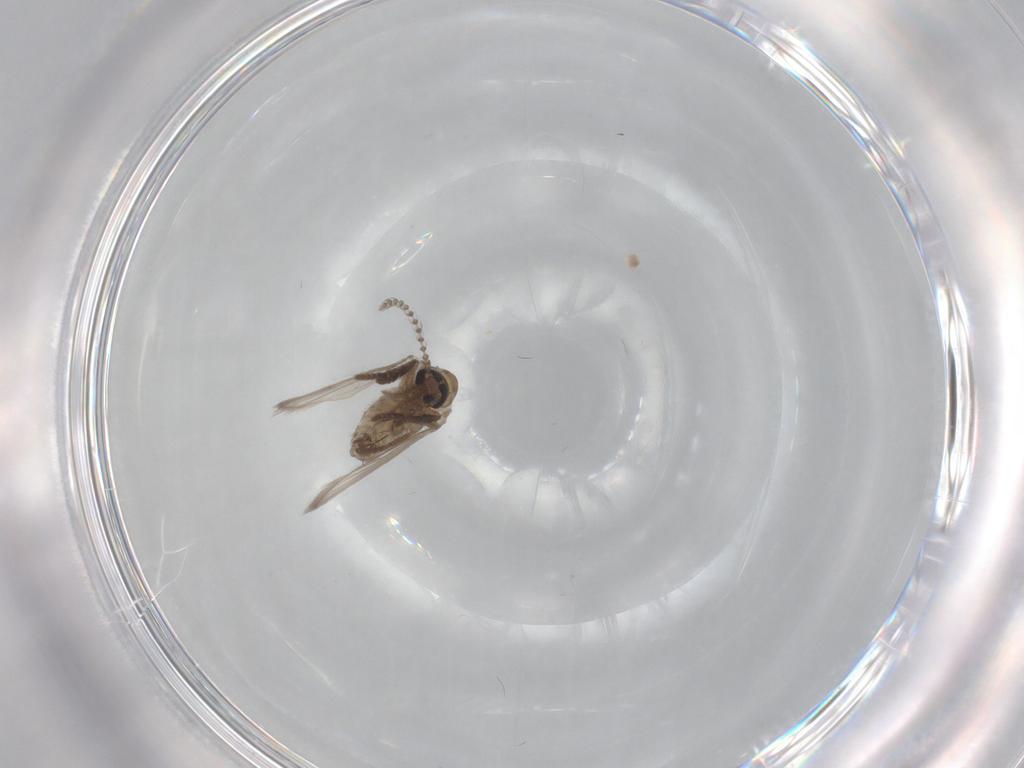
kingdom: Animalia
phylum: Arthropoda
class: Insecta
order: Diptera
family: Psychodidae
